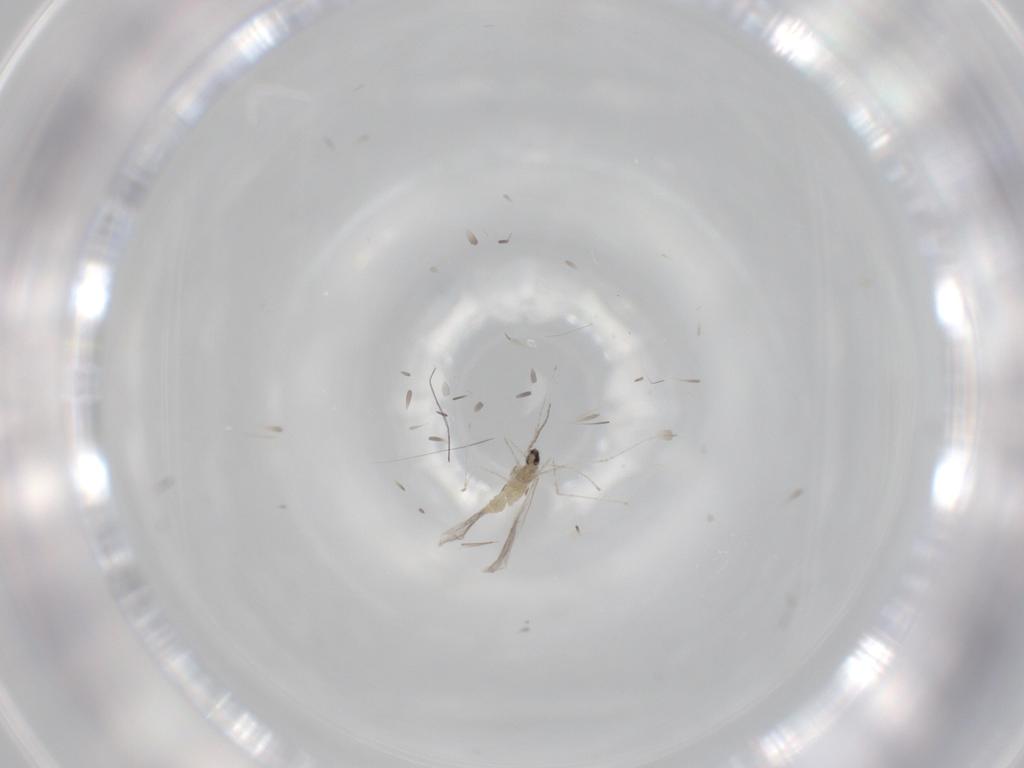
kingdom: Animalia
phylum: Arthropoda
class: Insecta
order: Diptera
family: Cecidomyiidae
